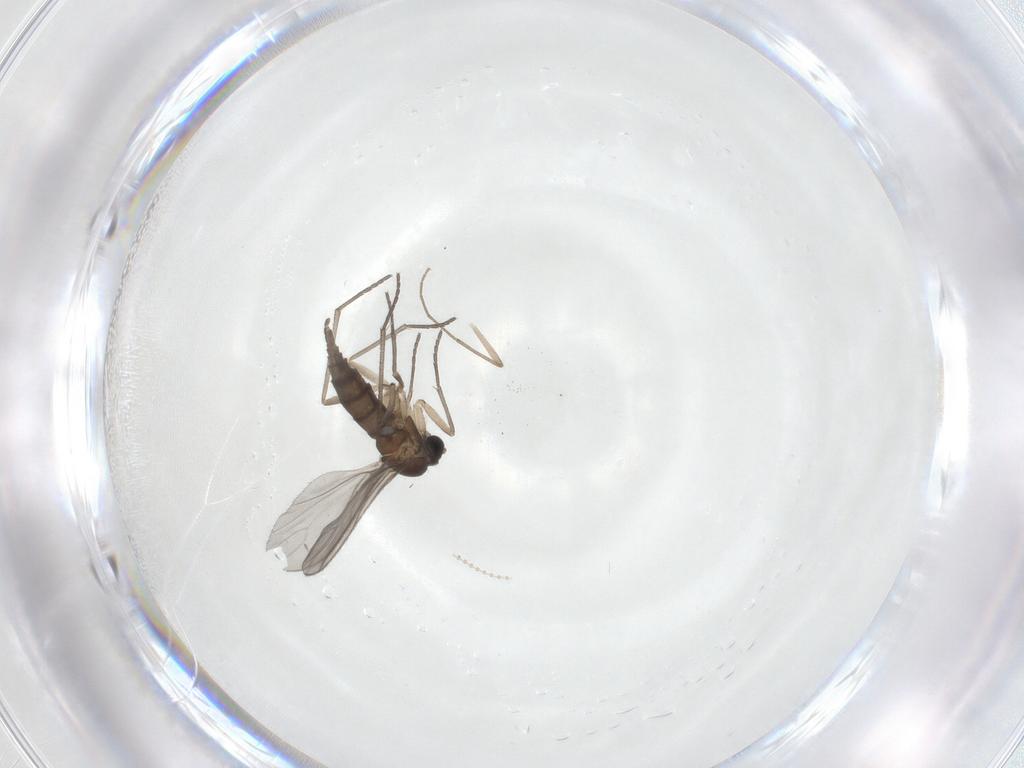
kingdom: Animalia
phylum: Arthropoda
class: Insecta
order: Diptera
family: Sciaridae
